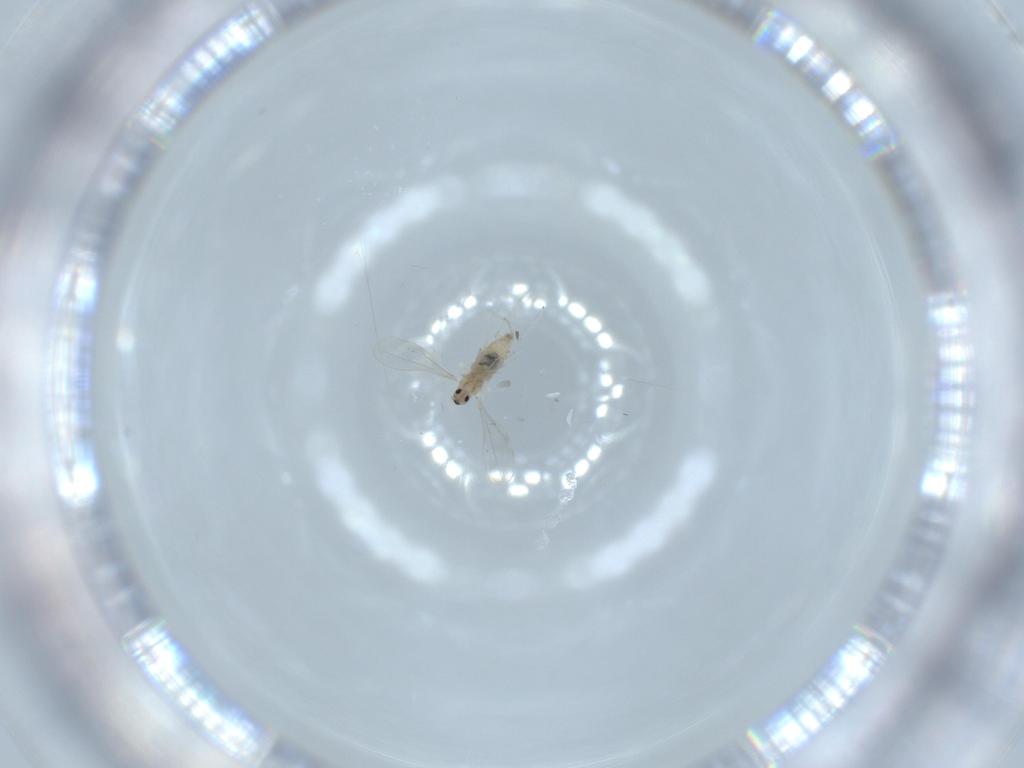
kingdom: Animalia
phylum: Arthropoda
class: Insecta
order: Diptera
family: Cecidomyiidae
